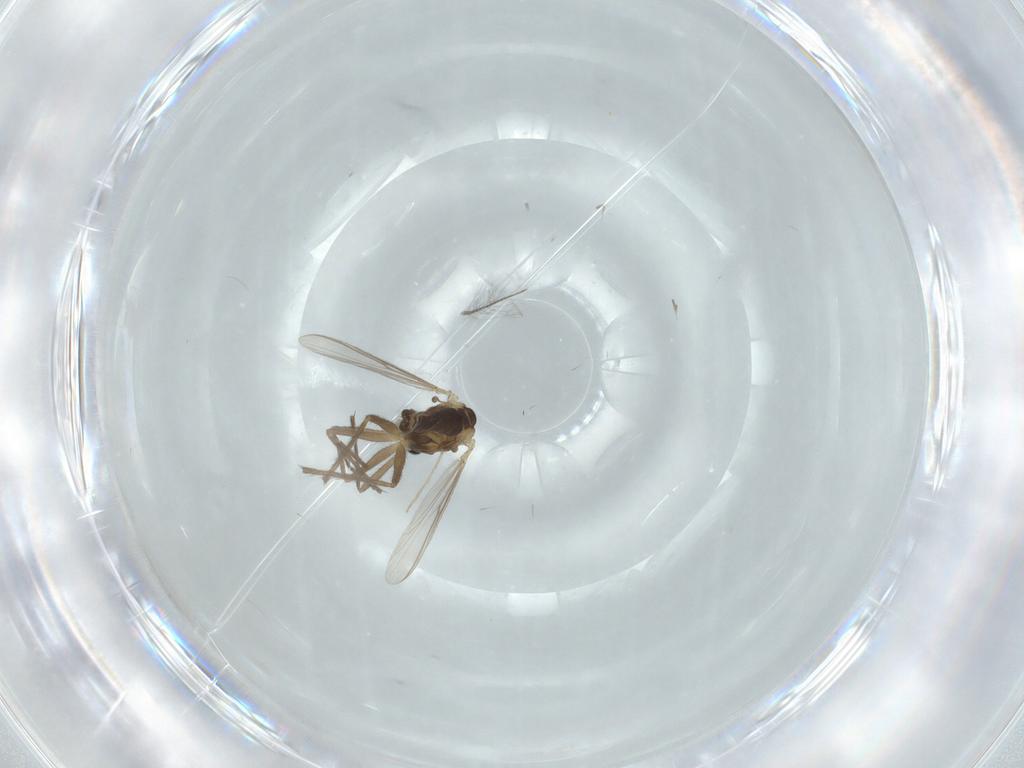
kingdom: Animalia
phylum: Arthropoda
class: Insecta
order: Diptera
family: Chironomidae
